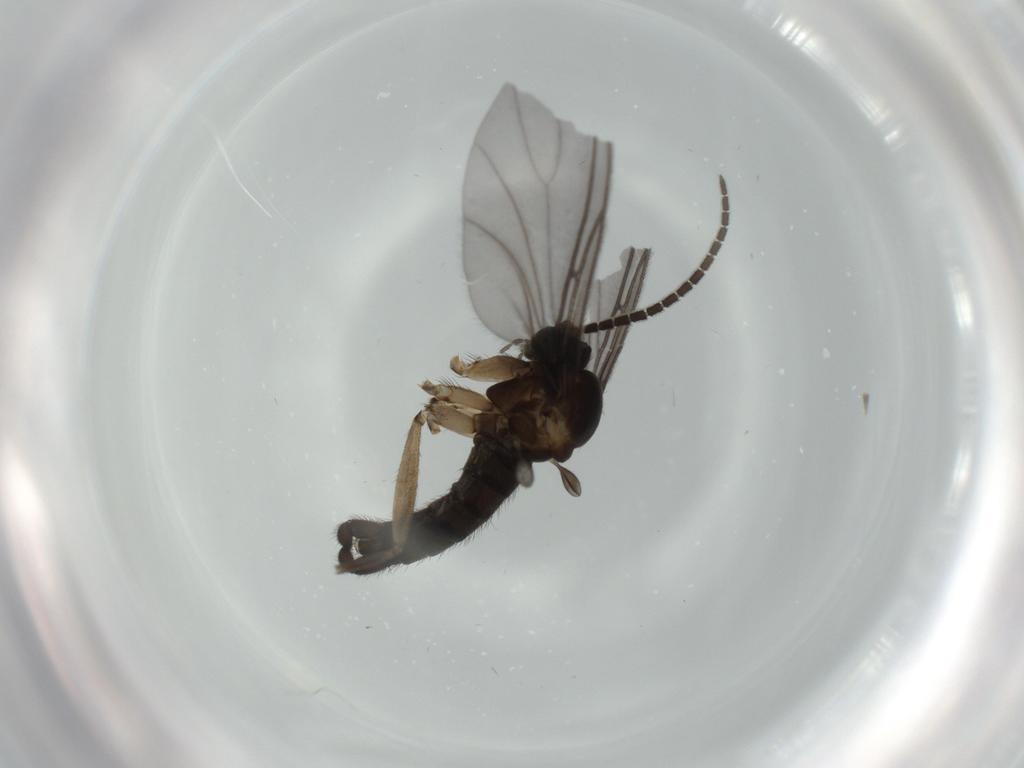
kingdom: Animalia
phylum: Arthropoda
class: Insecta
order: Diptera
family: Sciaridae
